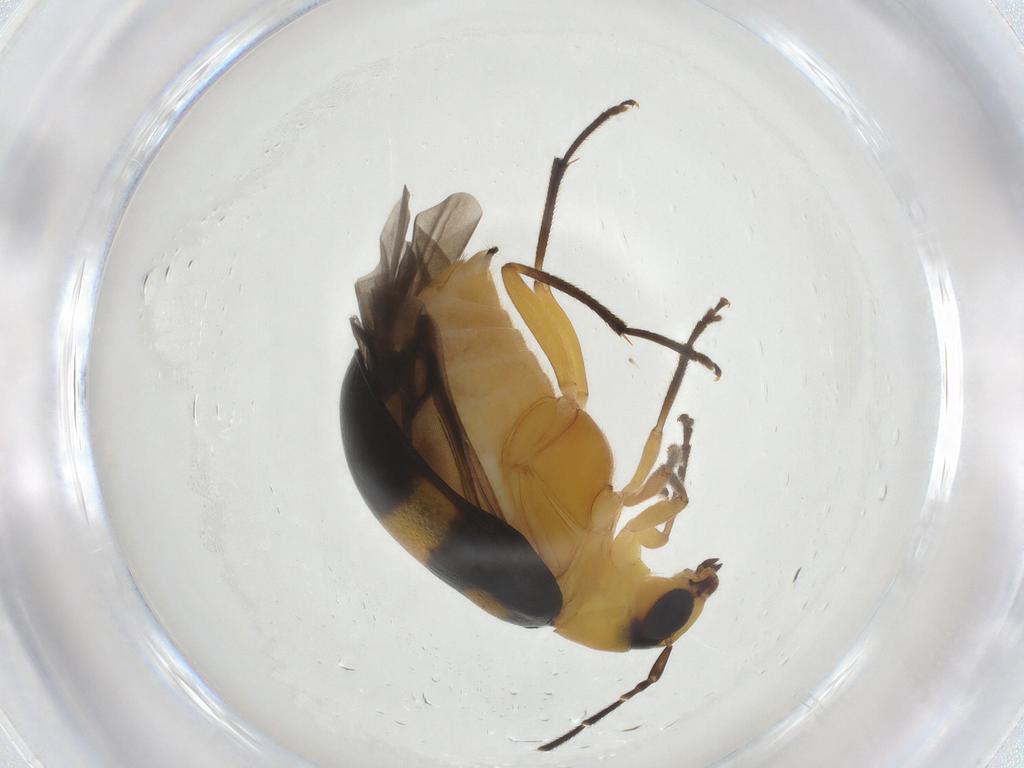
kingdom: Animalia
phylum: Arthropoda
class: Insecta
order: Coleoptera
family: Chrysomelidae
